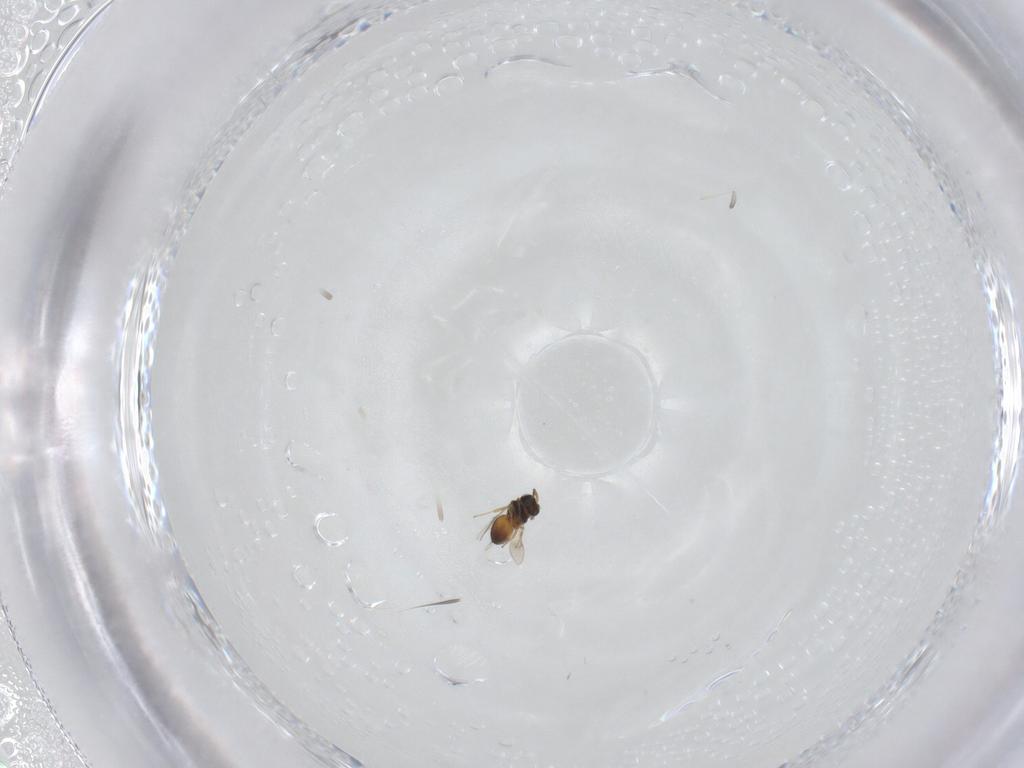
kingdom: Animalia
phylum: Arthropoda
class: Insecta
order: Hymenoptera
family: Scelionidae
